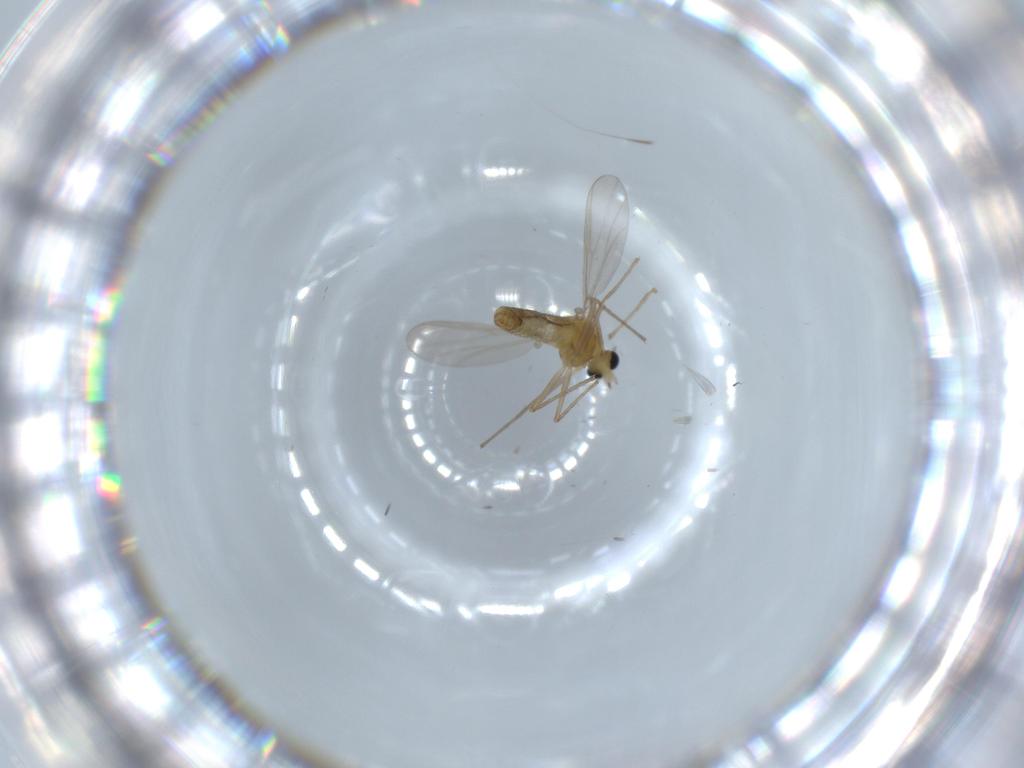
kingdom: Animalia
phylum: Arthropoda
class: Insecta
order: Diptera
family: Chironomidae
